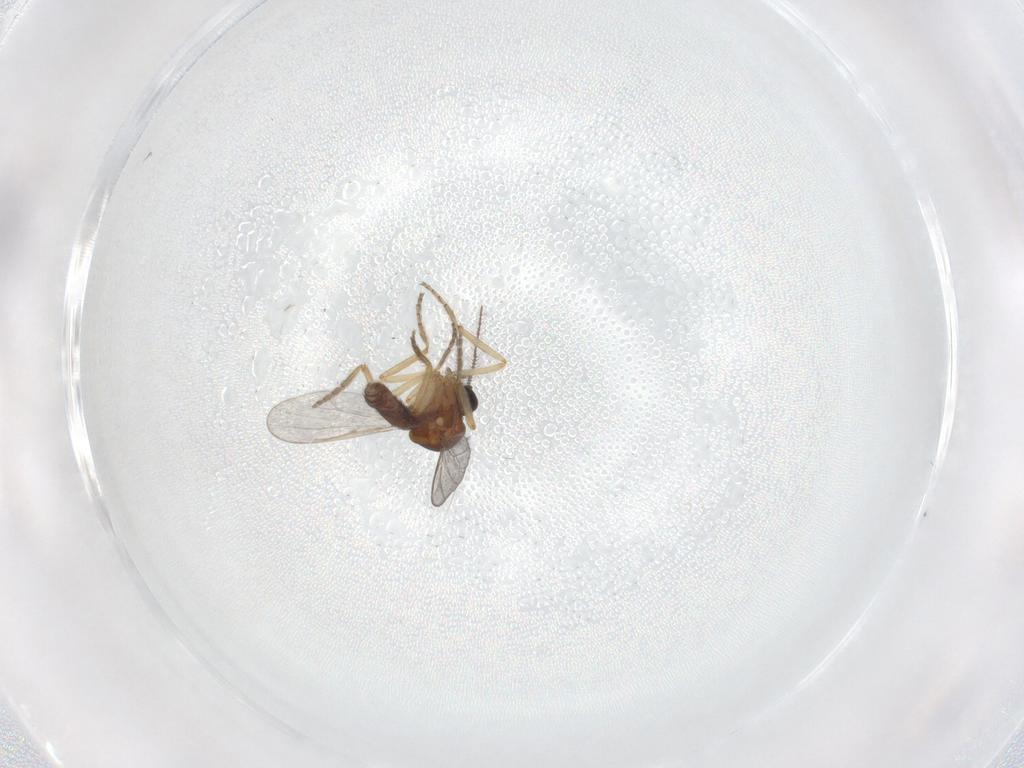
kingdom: Animalia
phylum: Arthropoda
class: Insecta
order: Diptera
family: Ceratopogonidae
